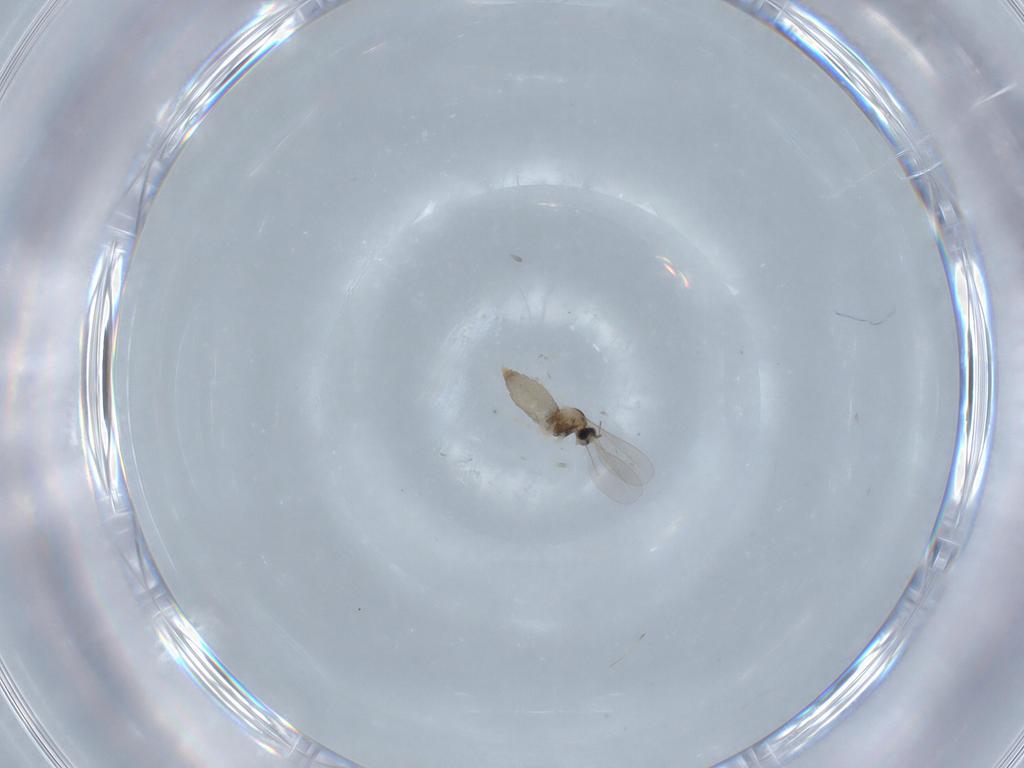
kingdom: Animalia
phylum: Arthropoda
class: Insecta
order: Diptera
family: Cecidomyiidae
